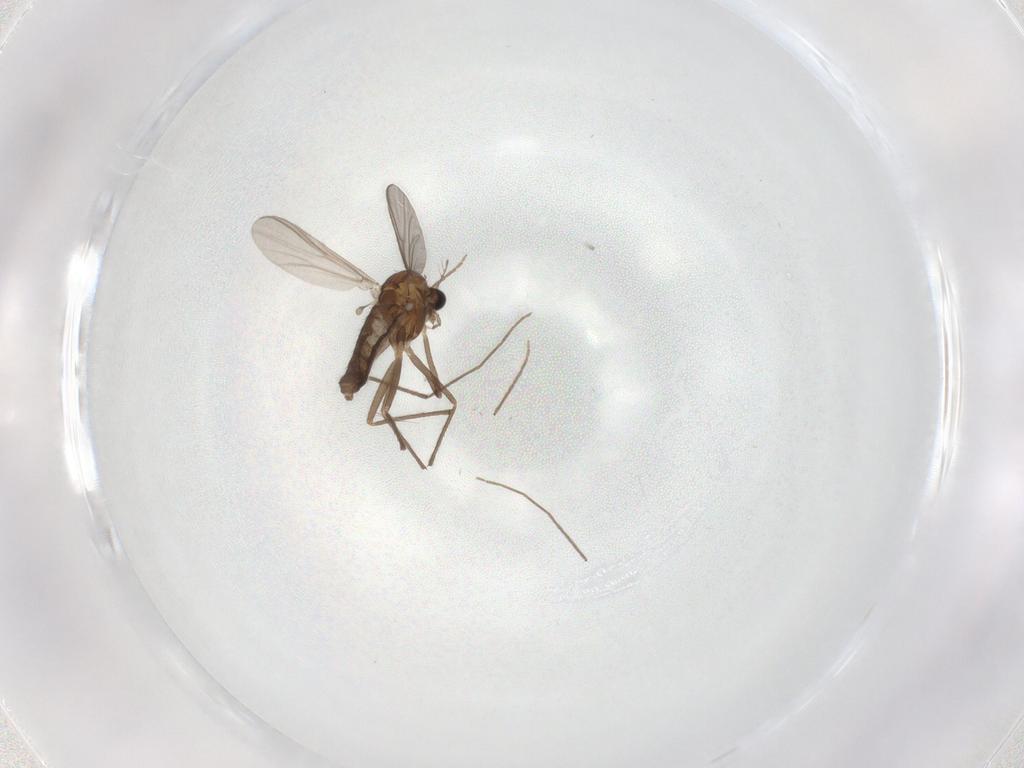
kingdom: Animalia
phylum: Arthropoda
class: Insecta
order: Diptera
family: Chironomidae
